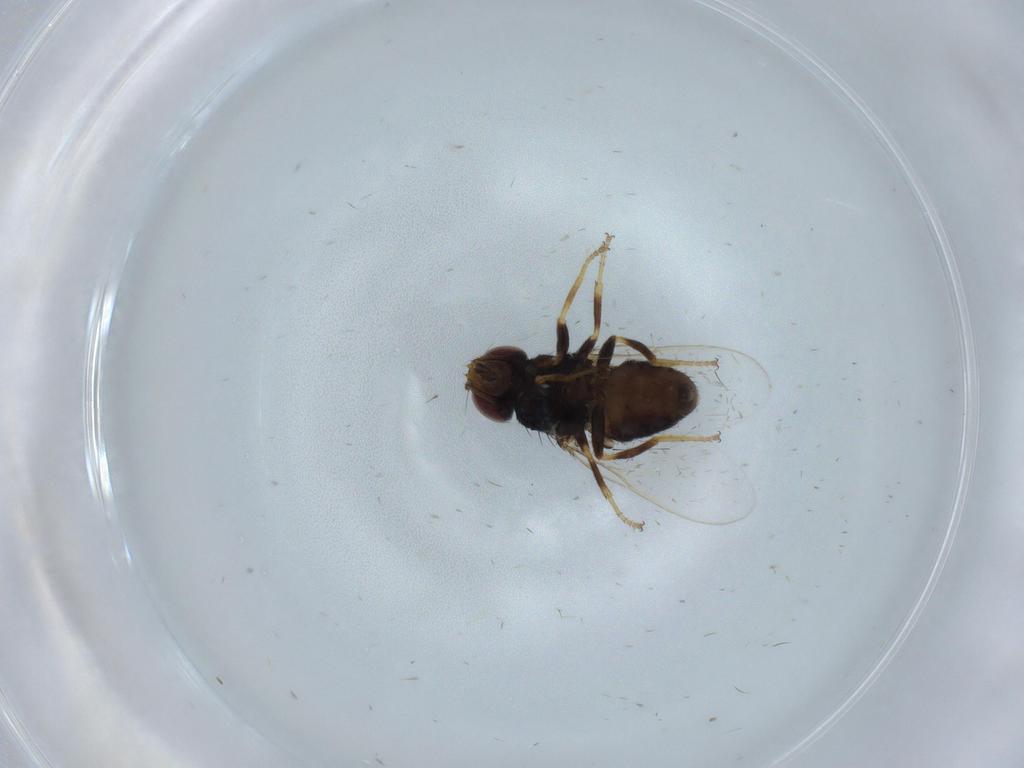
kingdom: Animalia
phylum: Arthropoda
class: Insecta
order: Diptera
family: Chloropidae
